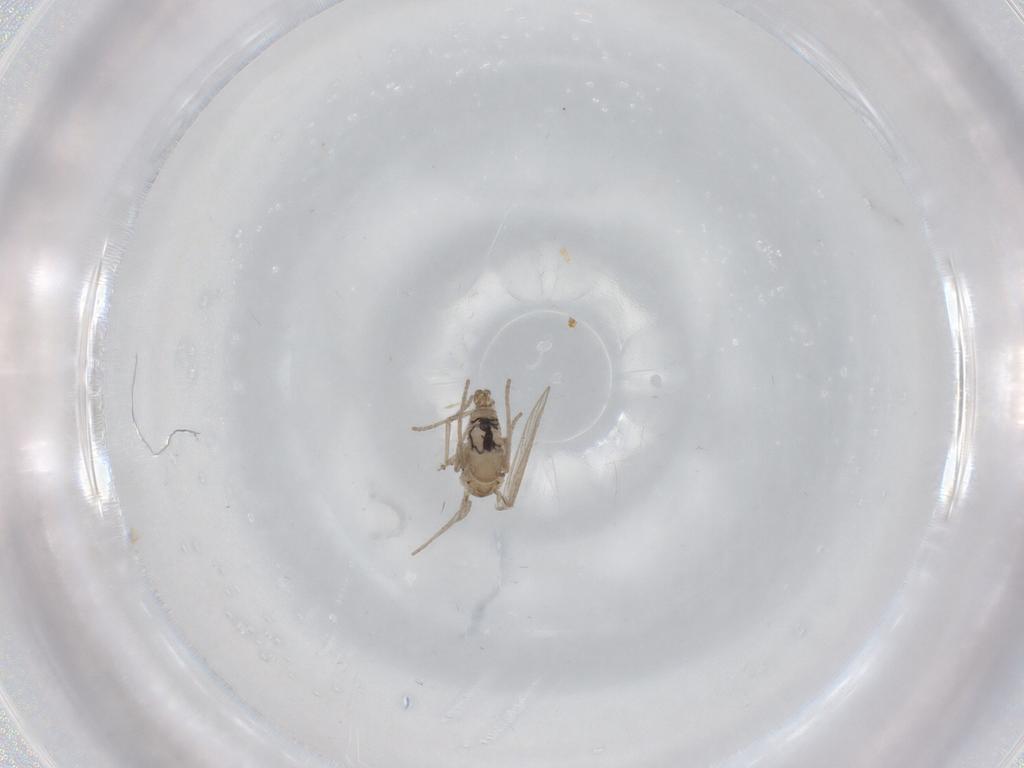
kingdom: Animalia
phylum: Arthropoda
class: Insecta
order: Diptera
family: Psychodidae
